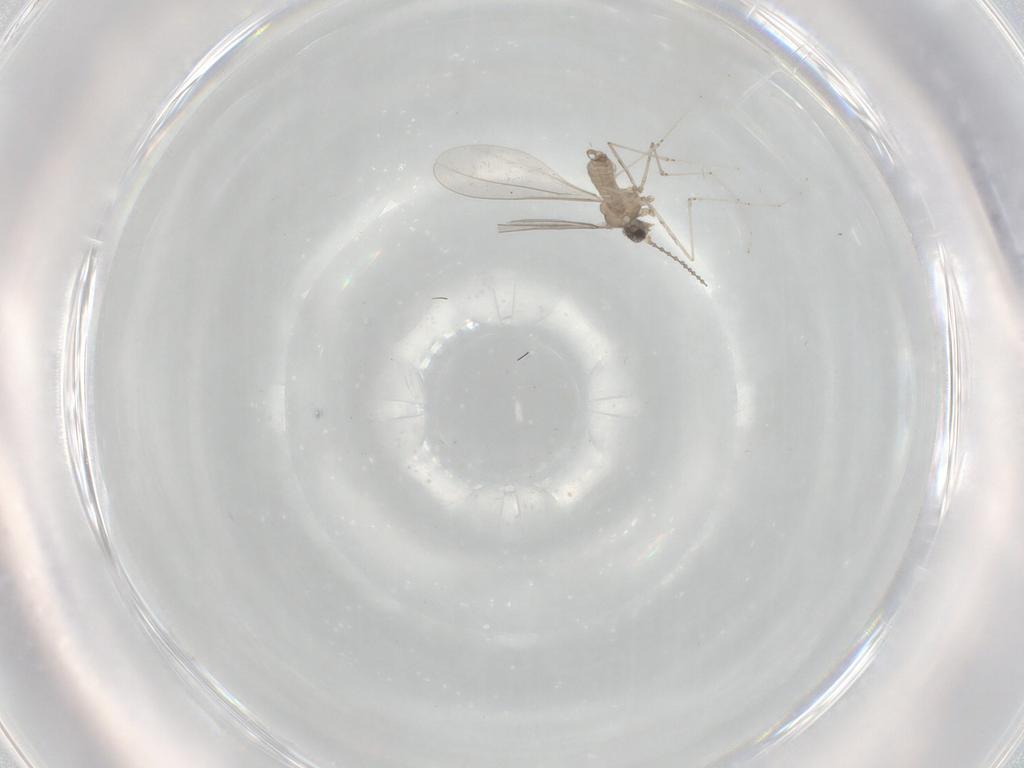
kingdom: Animalia
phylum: Arthropoda
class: Insecta
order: Diptera
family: Cecidomyiidae
